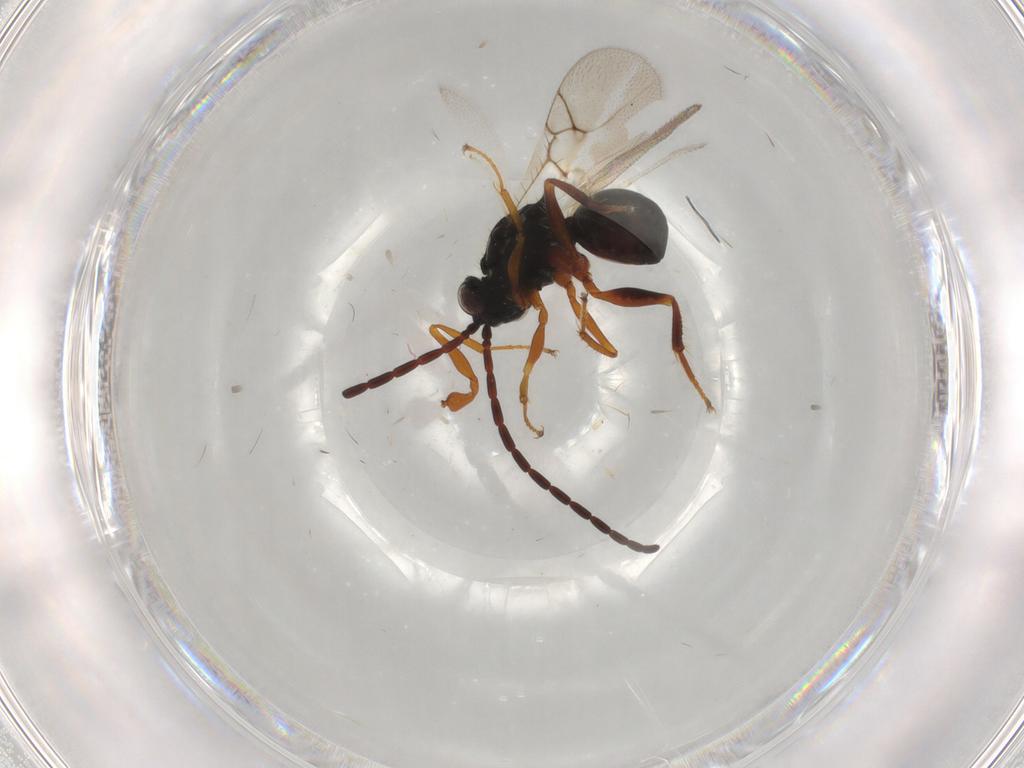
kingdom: Animalia
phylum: Arthropoda
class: Insecta
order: Hymenoptera
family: Figitidae
